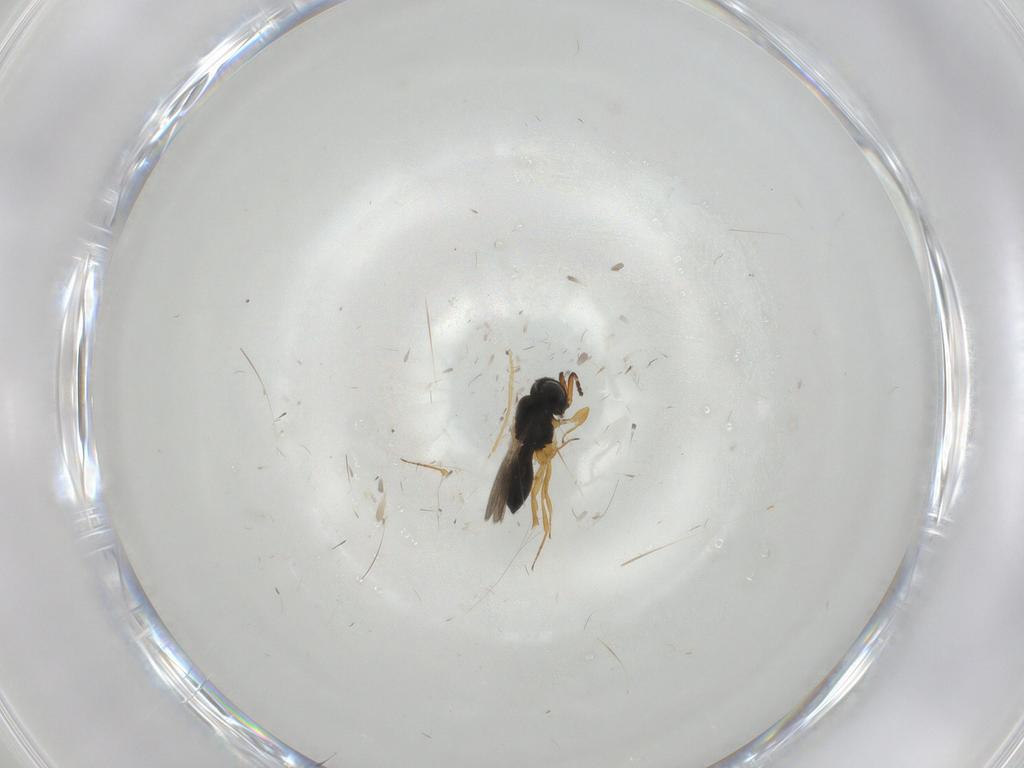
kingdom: Animalia
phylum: Arthropoda
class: Insecta
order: Hymenoptera
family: Scelionidae
